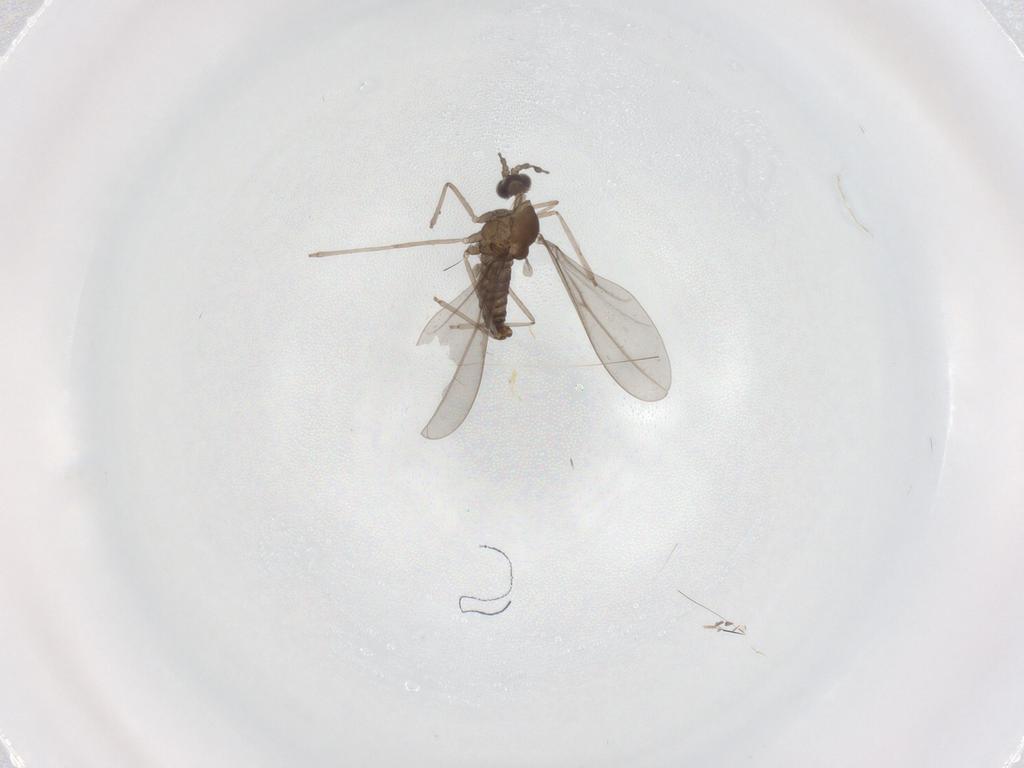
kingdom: Animalia
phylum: Arthropoda
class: Insecta
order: Diptera
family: Cecidomyiidae
